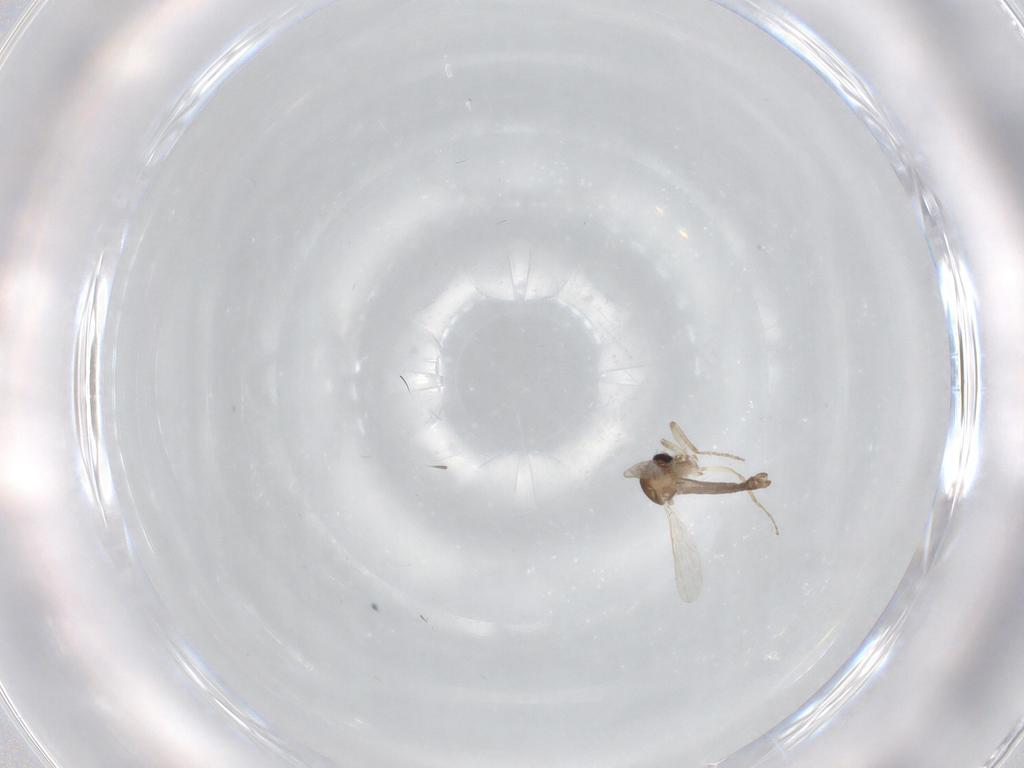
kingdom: Animalia
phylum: Arthropoda
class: Insecta
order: Diptera
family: Ceratopogonidae
